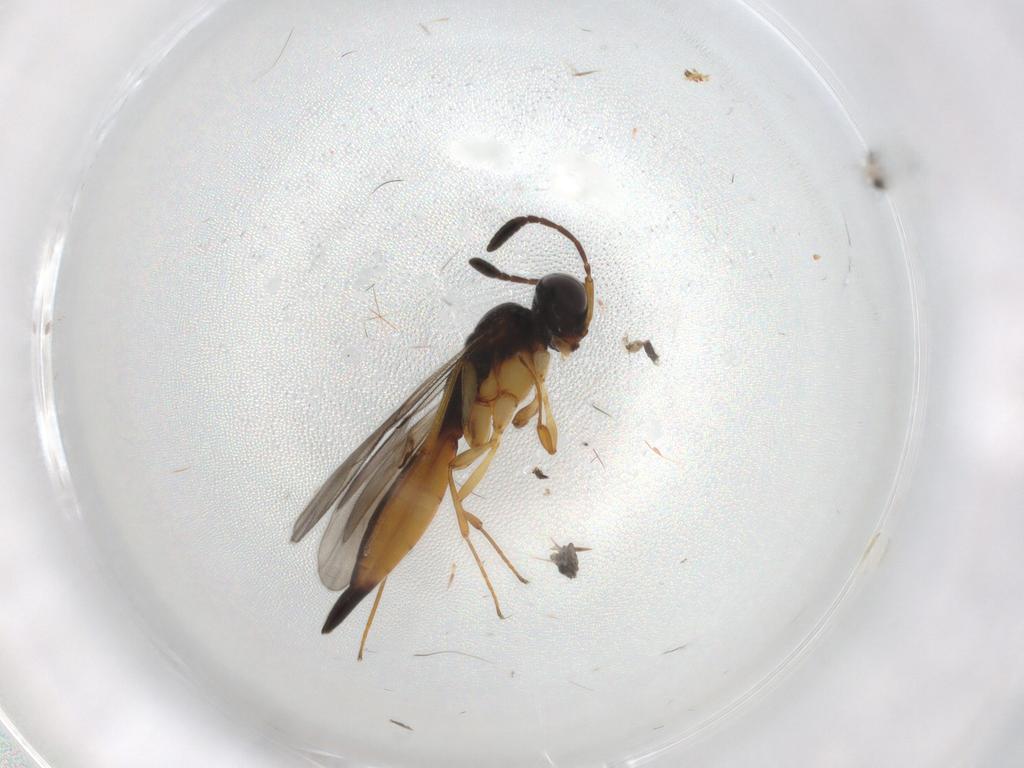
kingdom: Animalia
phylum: Arthropoda
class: Insecta
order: Hymenoptera
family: Scelionidae
